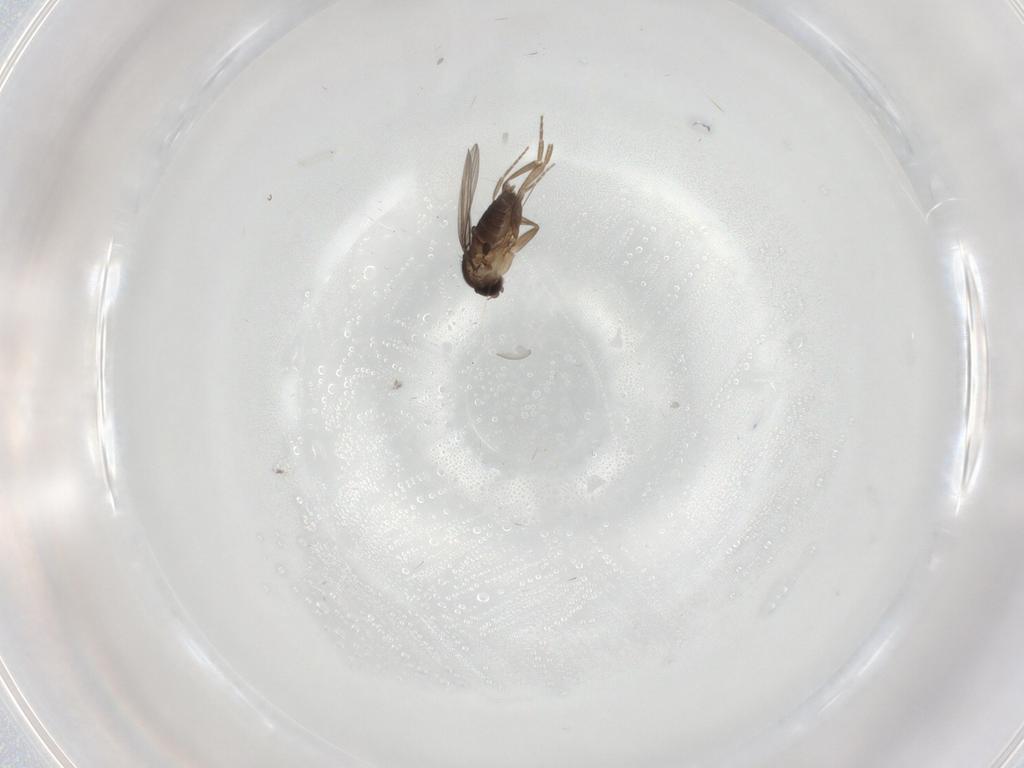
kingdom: Animalia
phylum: Arthropoda
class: Insecta
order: Diptera
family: Phoridae
